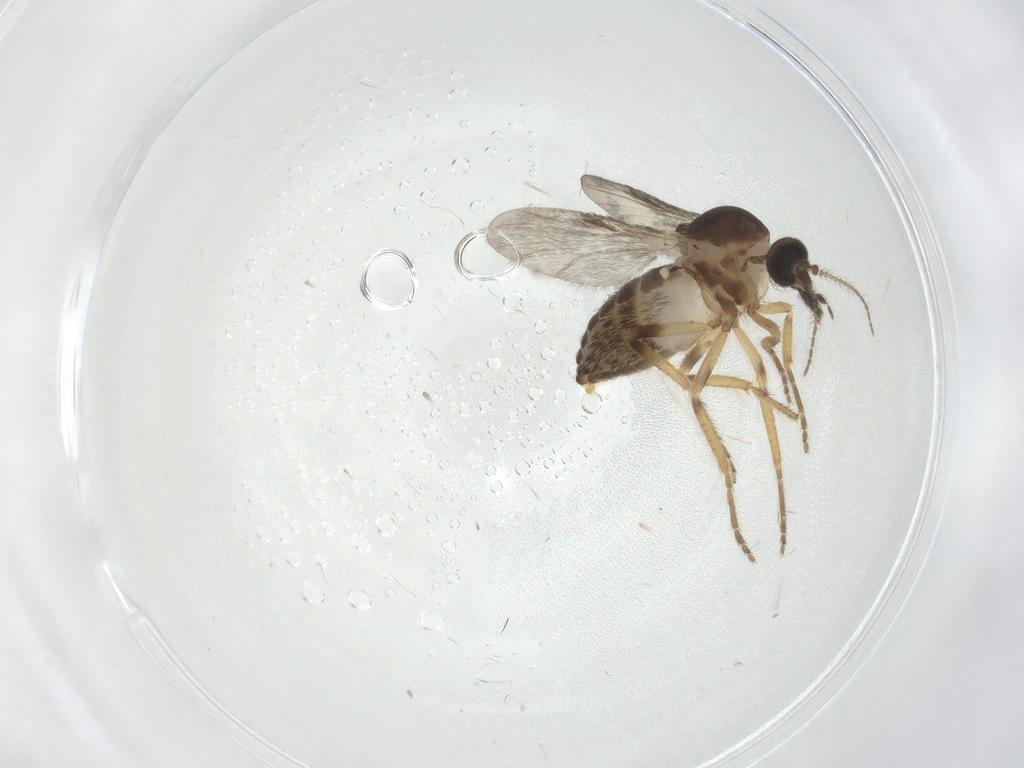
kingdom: Animalia
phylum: Arthropoda
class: Insecta
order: Diptera
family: Ceratopogonidae
